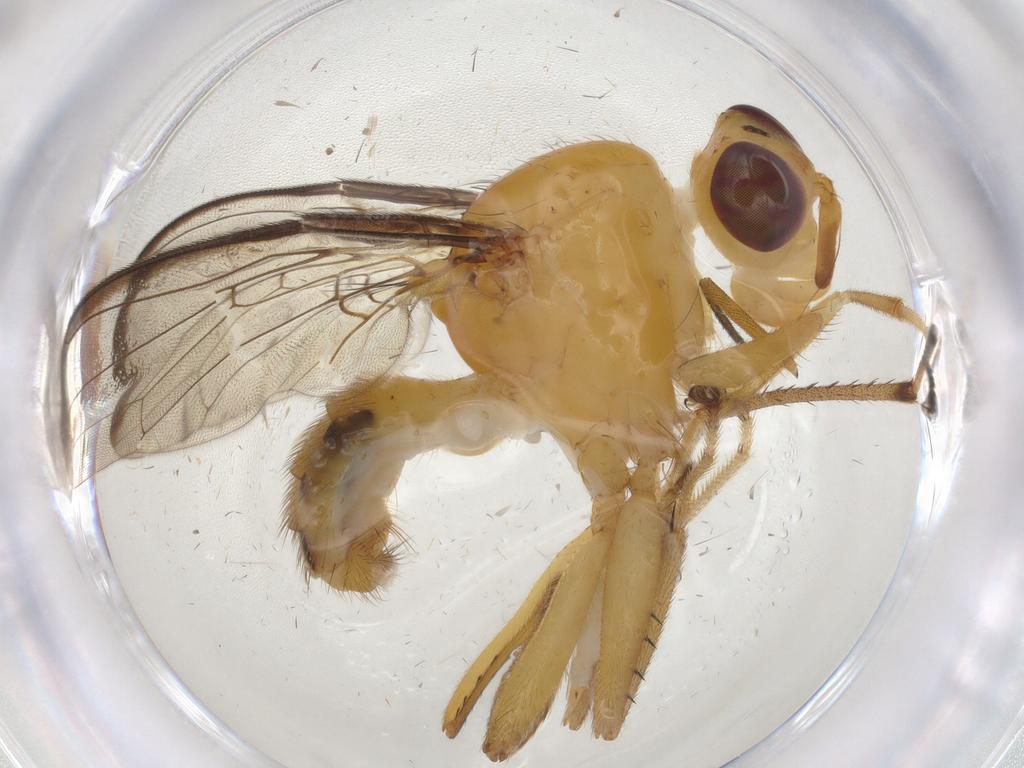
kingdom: Animalia
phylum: Arthropoda
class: Insecta
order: Diptera
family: Richardiidae
